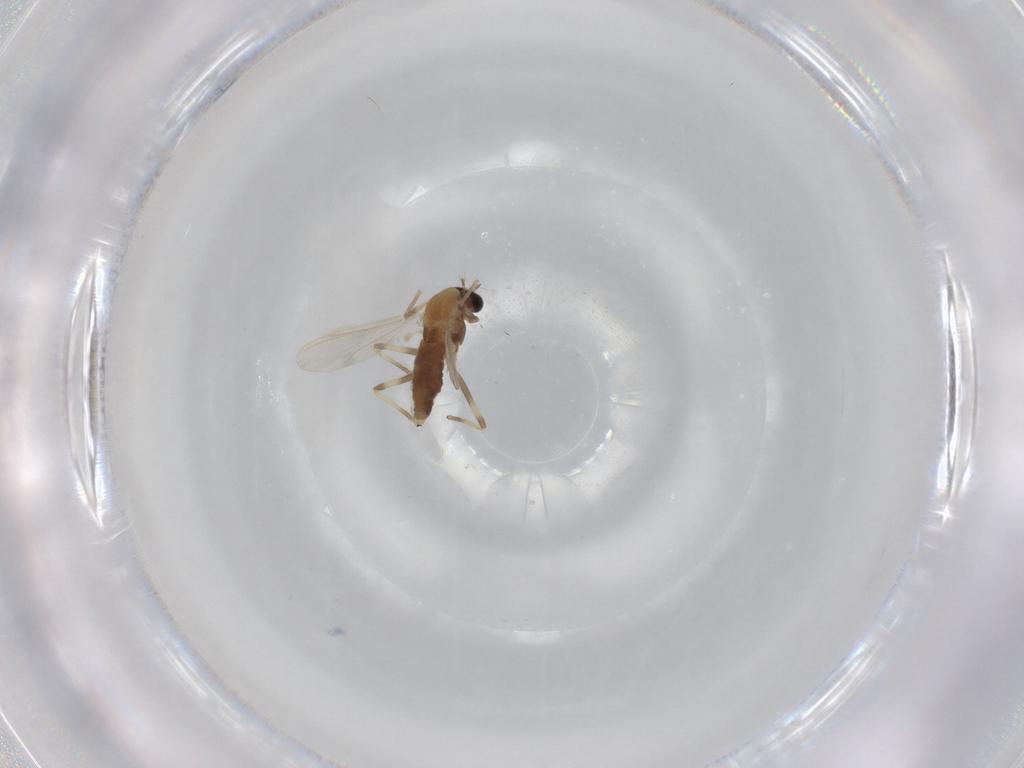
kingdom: Animalia
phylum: Arthropoda
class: Insecta
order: Diptera
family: Chironomidae
